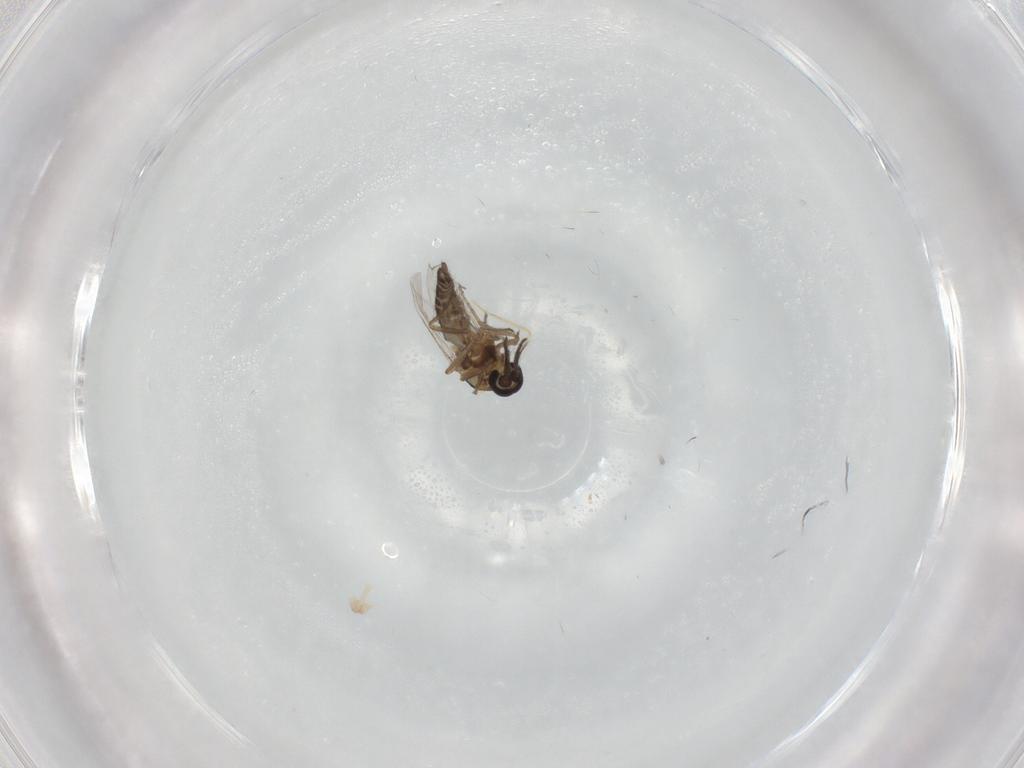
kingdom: Animalia
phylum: Arthropoda
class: Insecta
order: Diptera
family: Ceratopogonidae
